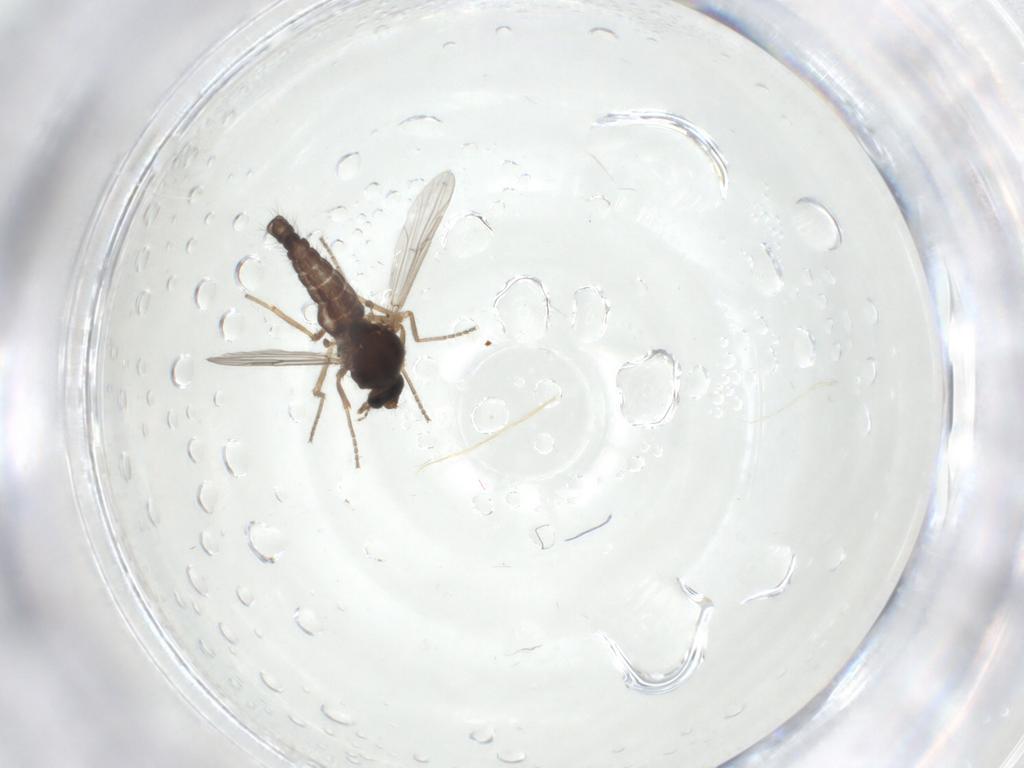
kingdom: Animalia
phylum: Arthropoda
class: Insecta
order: Diptera
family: Ceratopogonidae
